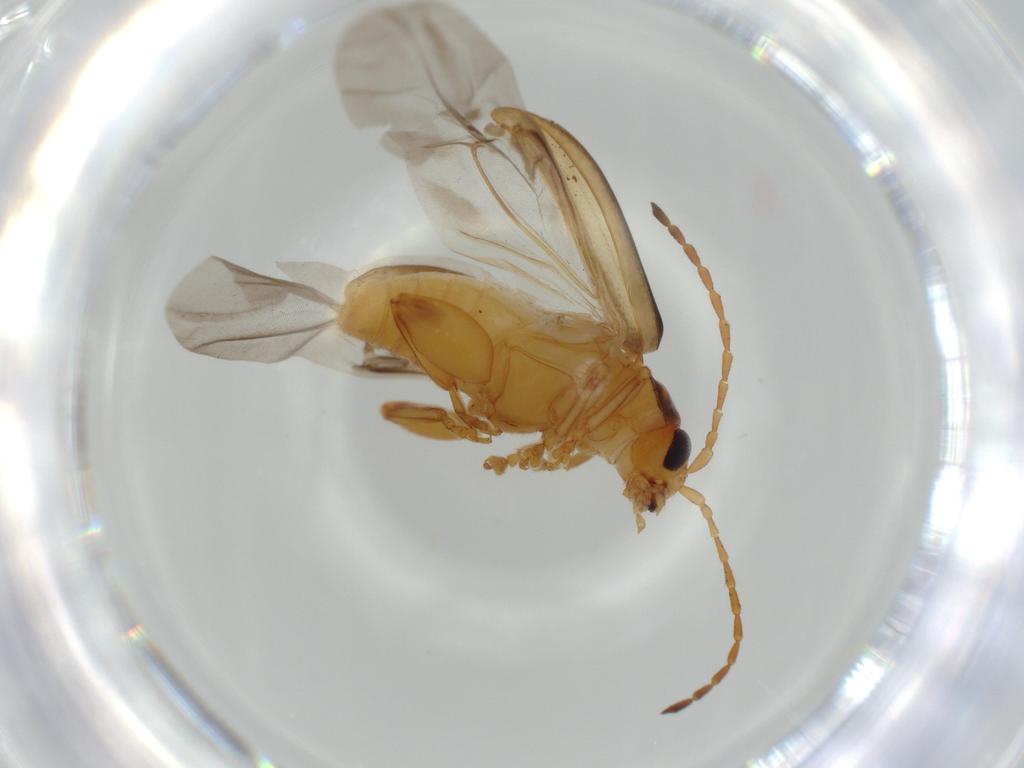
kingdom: Animalia
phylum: Arthropoda
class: Insecta
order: Coleoptera
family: Chrysomelidae
